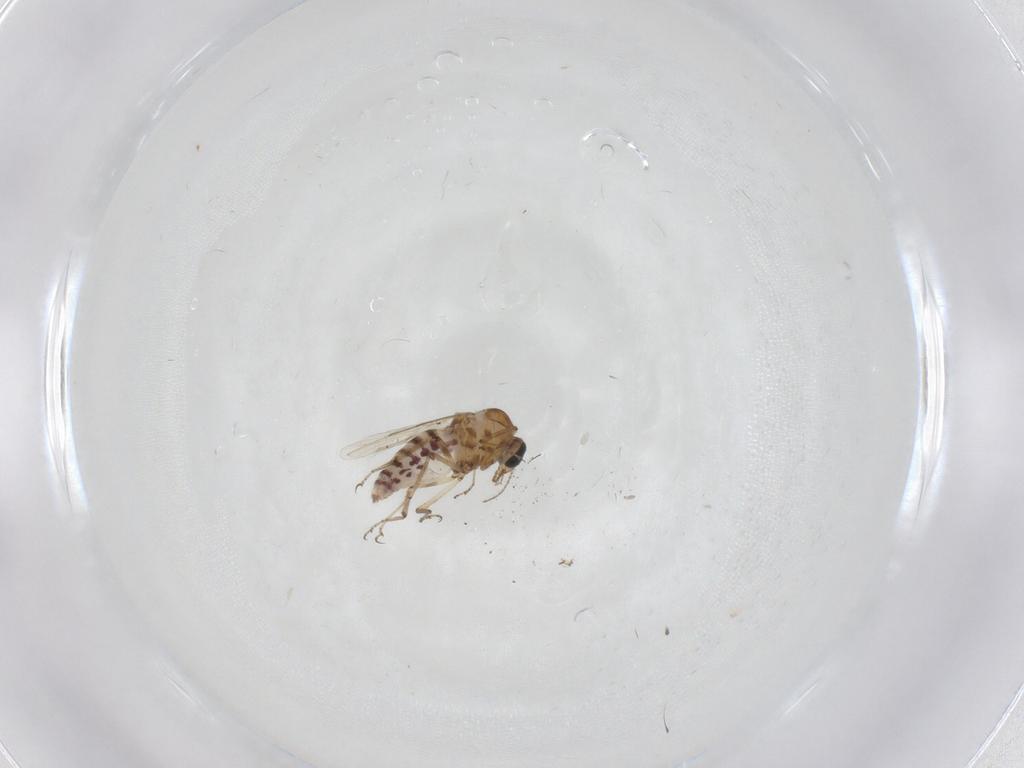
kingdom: Animalia
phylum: Arthropoda
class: Insecta
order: Diptera
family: Ceratopogonidae
